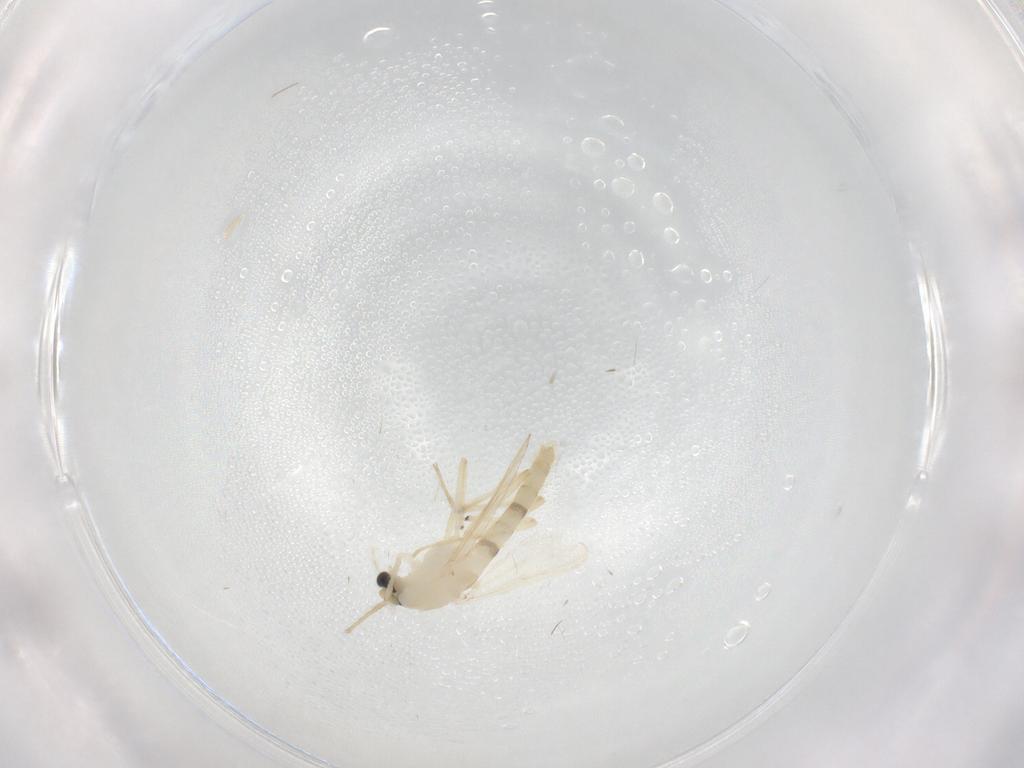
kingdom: Animalia
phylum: Arthropoda
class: Insecta
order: Diptera
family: Chironomidae
